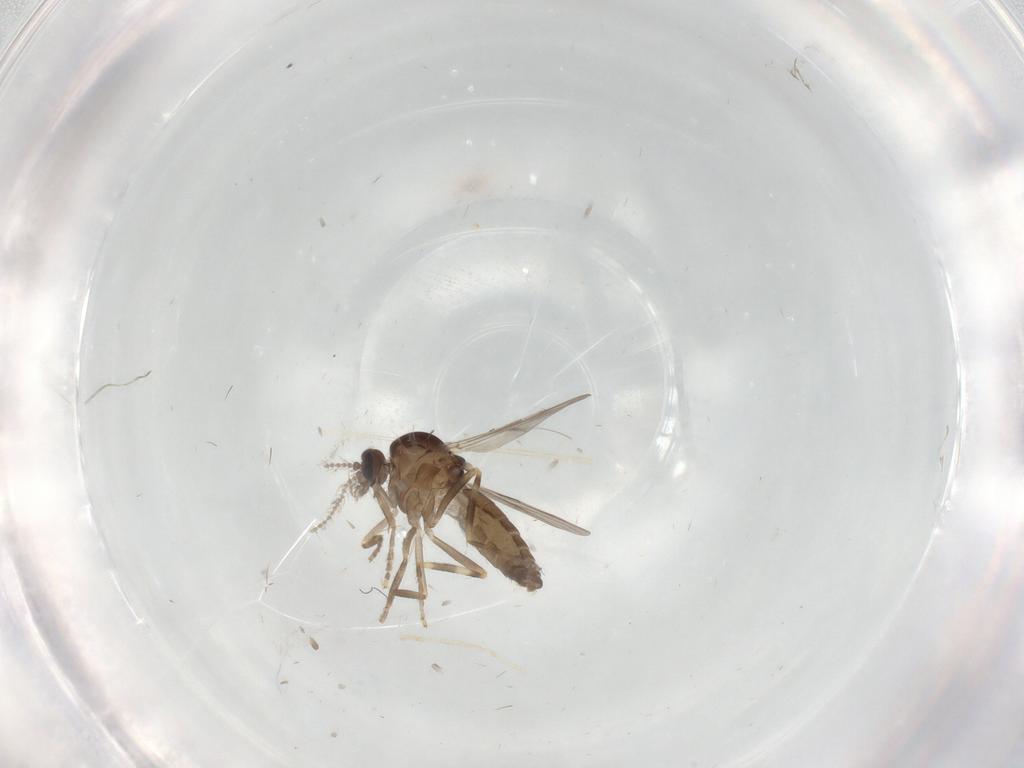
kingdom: Animalia
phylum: Arthropoda
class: Insecta
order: Diptera
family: Ceratopogonidae
